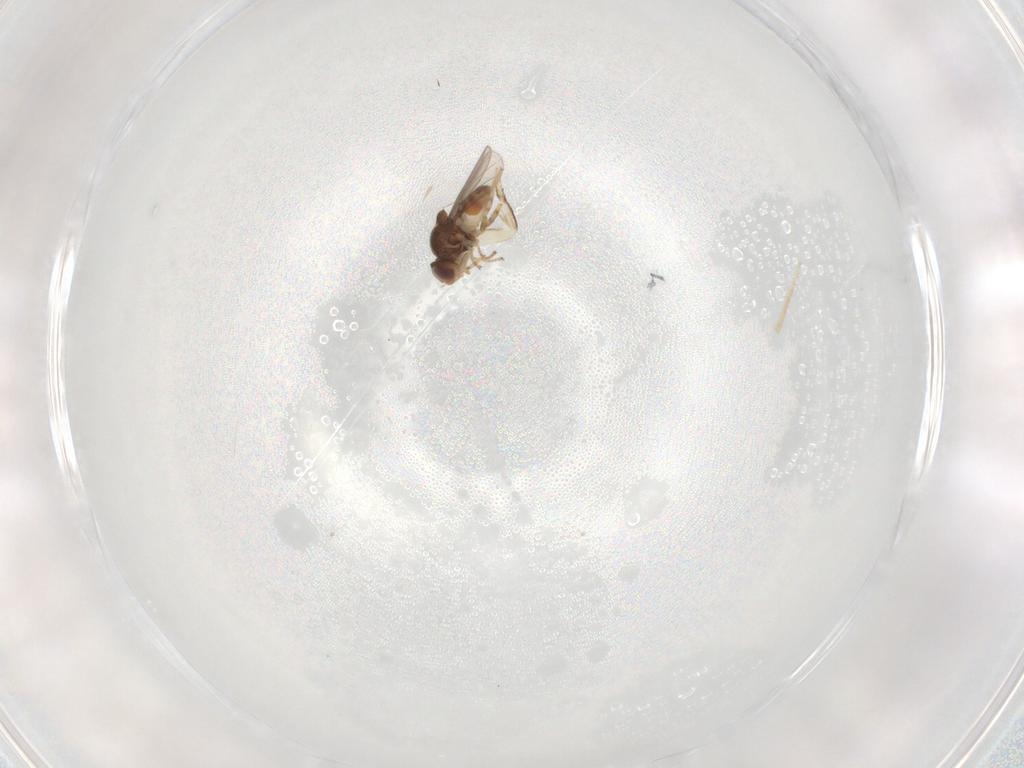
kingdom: Animalia
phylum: Arthropoda
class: Insecta
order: Diptera
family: Chloropidae
